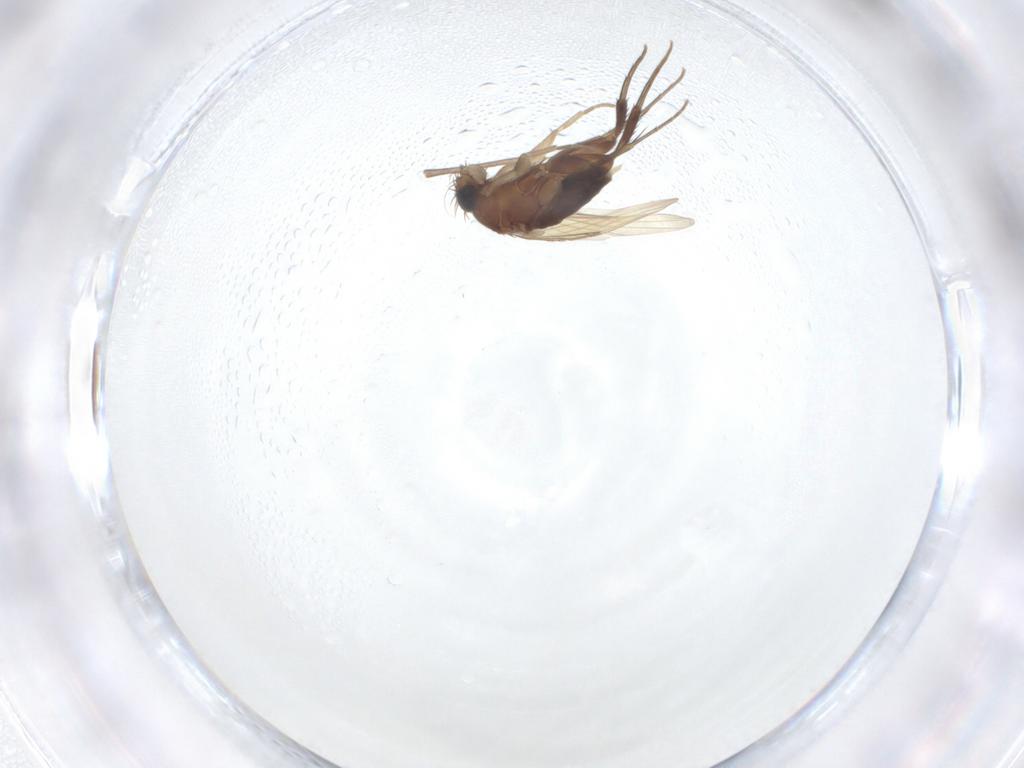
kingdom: Animalia
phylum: Arthropoda
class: Insecta
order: Diptera
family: Phoridae
